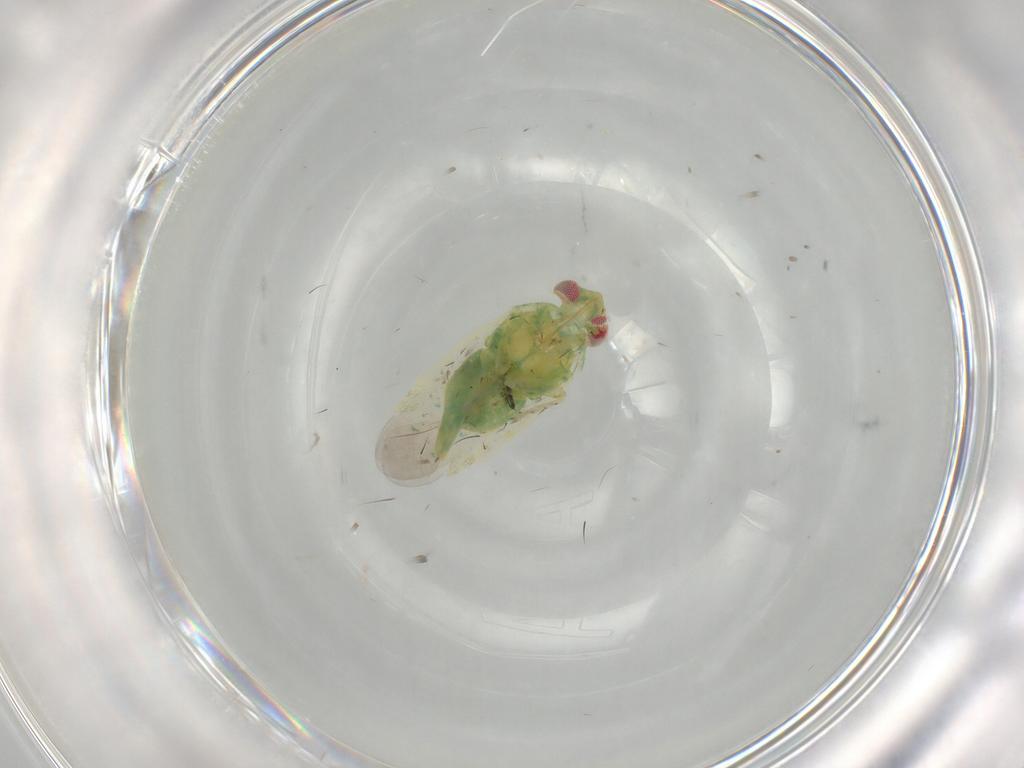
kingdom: Animalia
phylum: Arthropoda
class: Insecta
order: Hemiptera
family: Miridae
